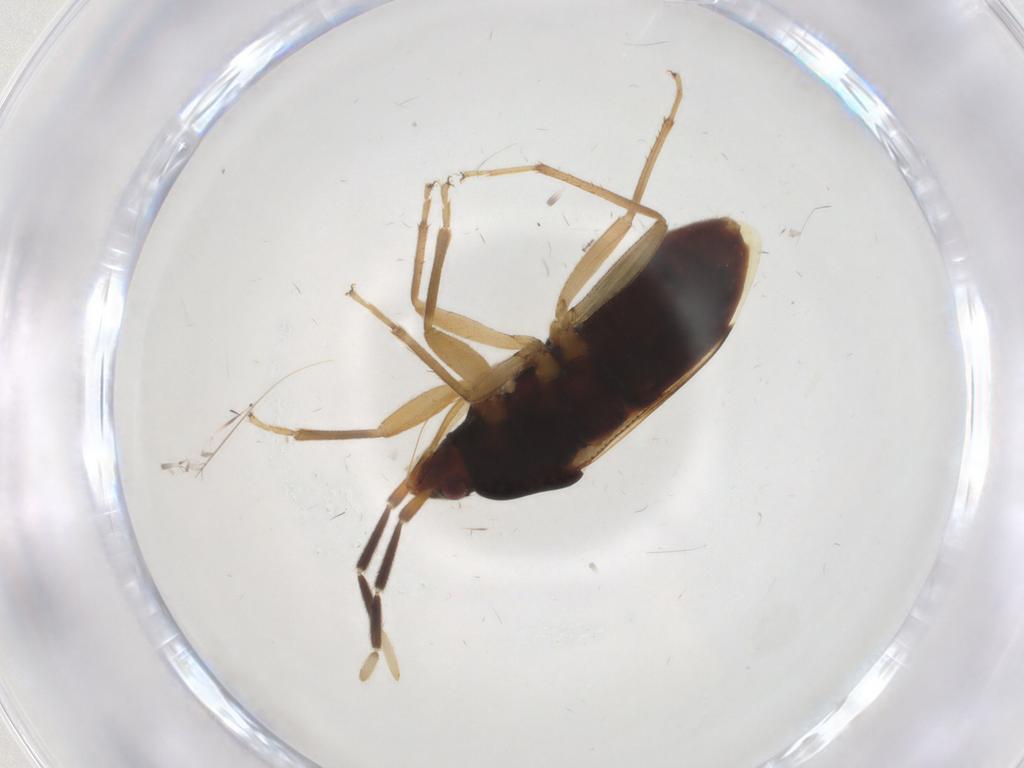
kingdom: Animalia
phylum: Arthropoda
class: Insecta
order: Hemiptera
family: Rhyparochromidae
